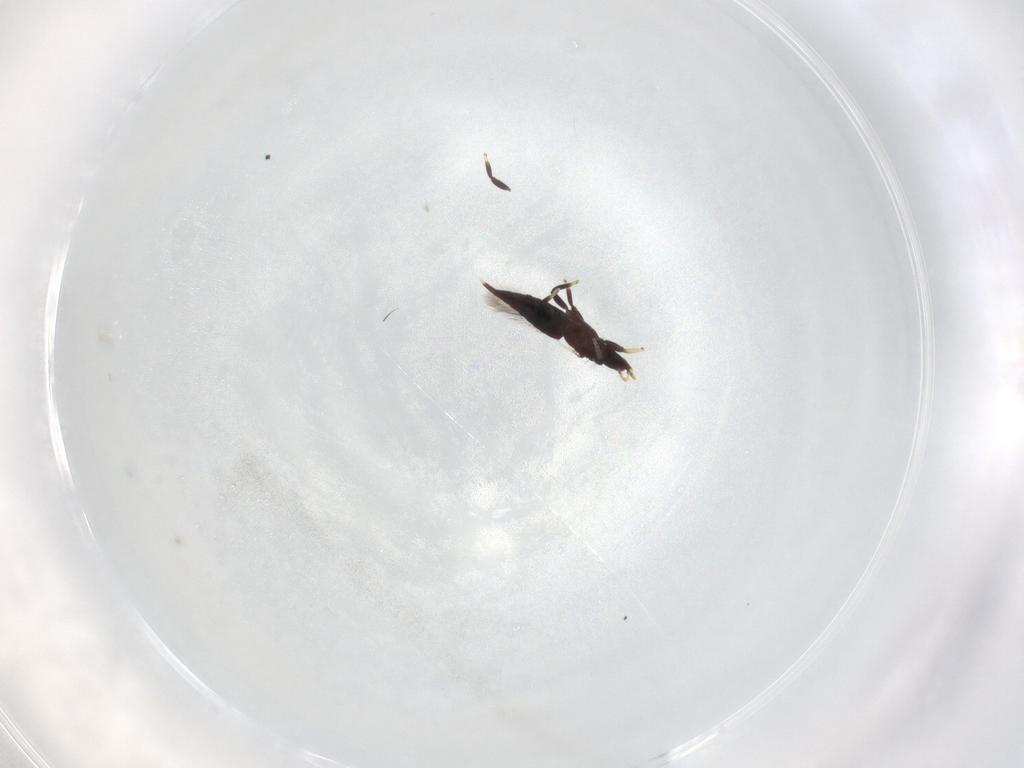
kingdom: Animalia
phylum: Arthropoda
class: Insecta
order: Thysanoptera
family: Phlaeothripidae
